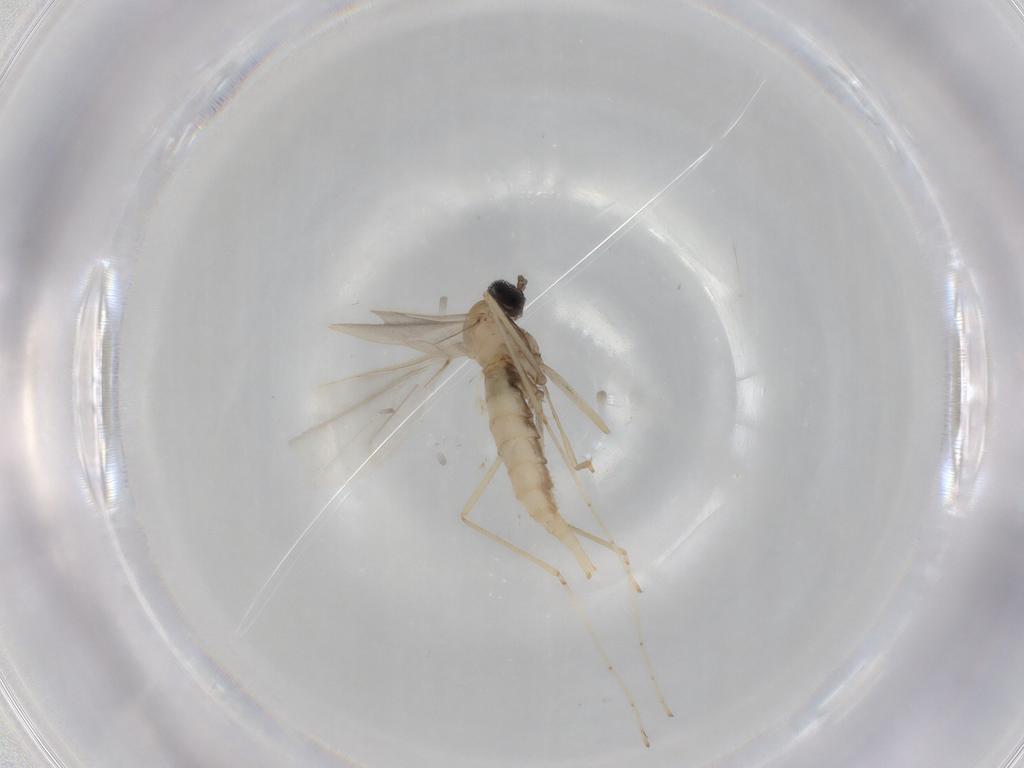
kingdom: Animalia
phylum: Arthropoda
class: Insecta
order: Diptera
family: Cecidomyiidae
